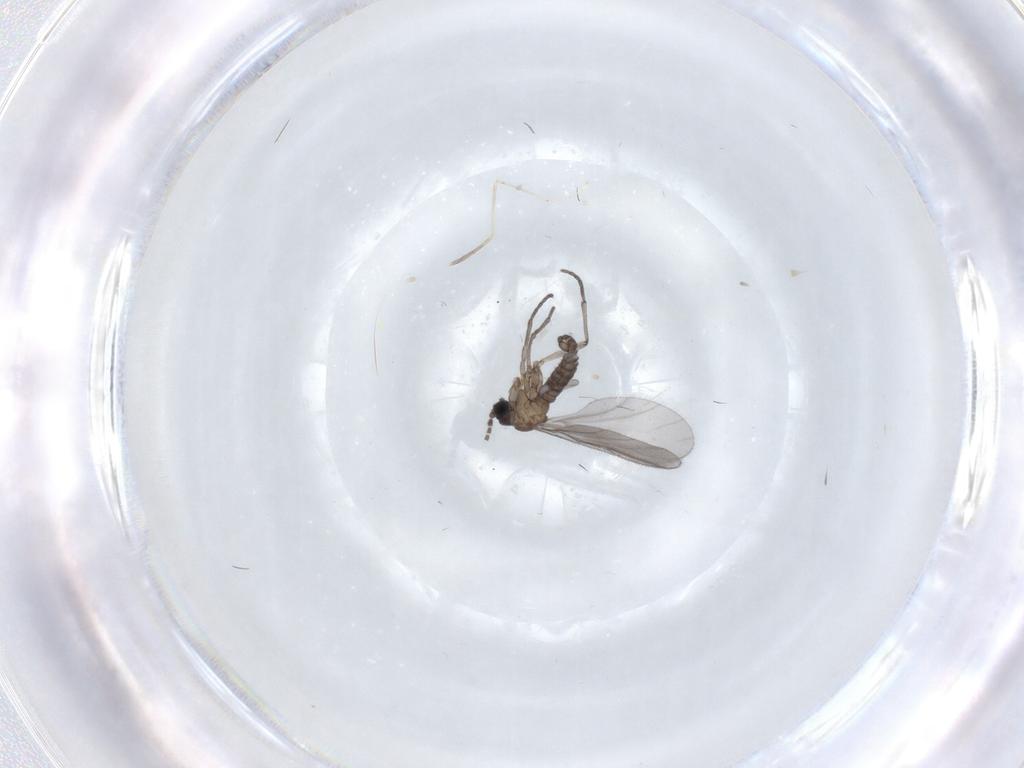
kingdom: Animalia
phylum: Arthropoda
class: Insecta
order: Diptera
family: Sciaridae
